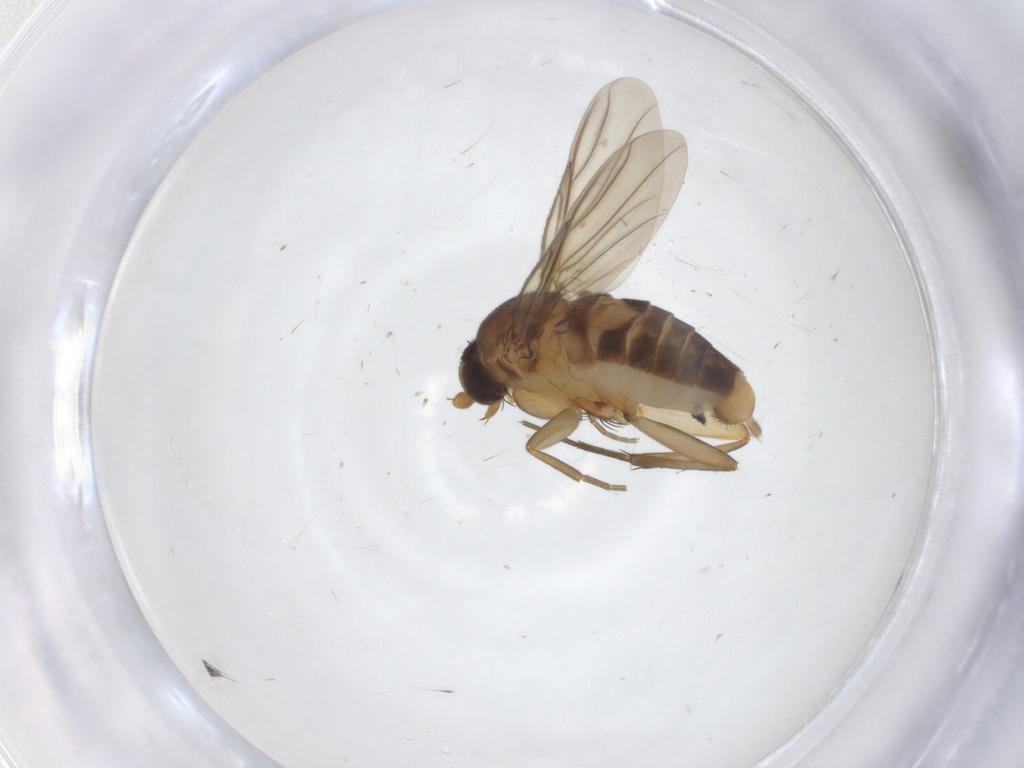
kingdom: Animalia
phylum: Arthropoda
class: Insecta
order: Diptera
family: Phoridae
